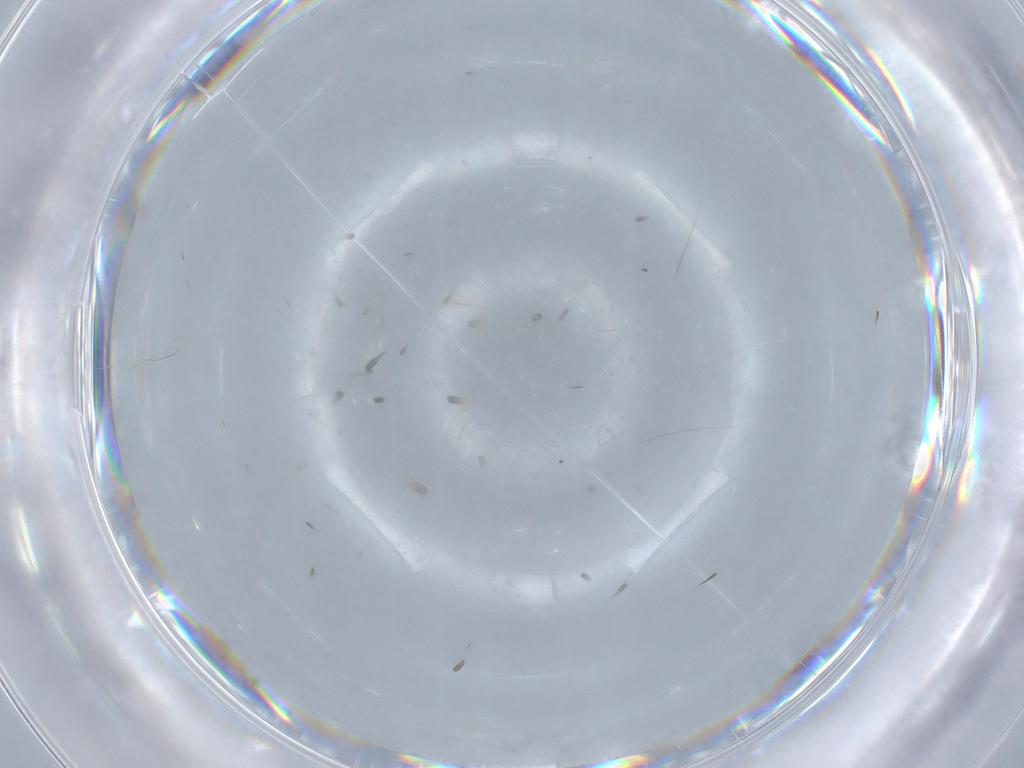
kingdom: Animalia
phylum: Arthropoda
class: Insecta
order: Diptera
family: Chironomidae
